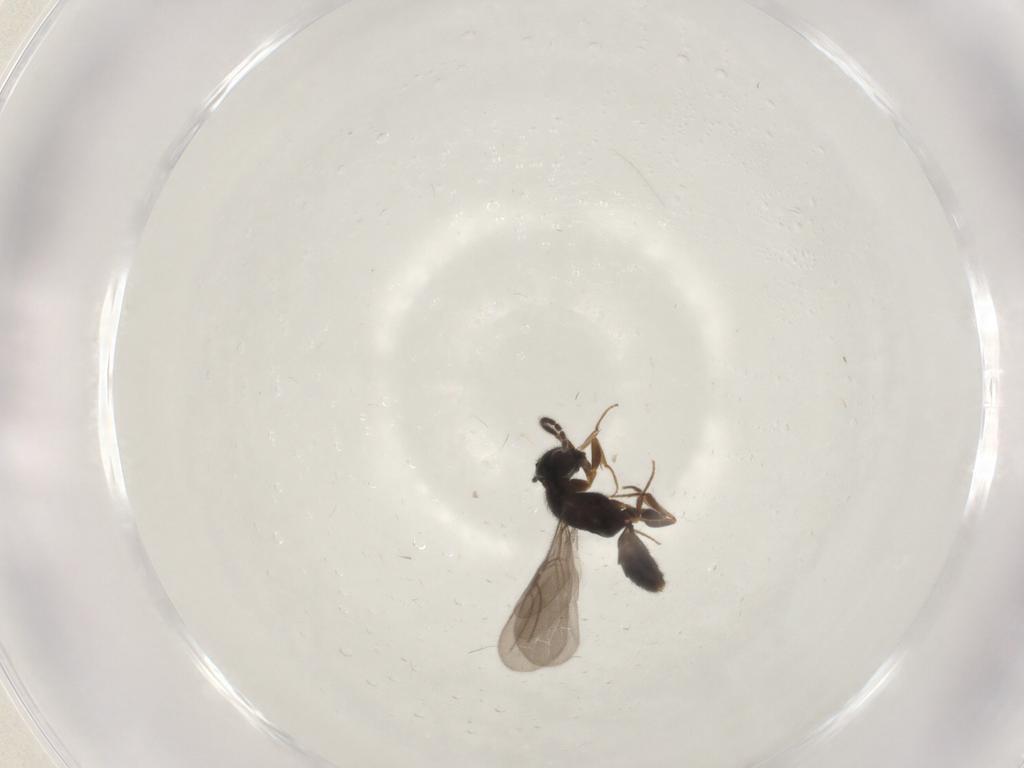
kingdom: Animalia
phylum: Arthropoda
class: Insecta
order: Hymenoptera
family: Bethylidae
